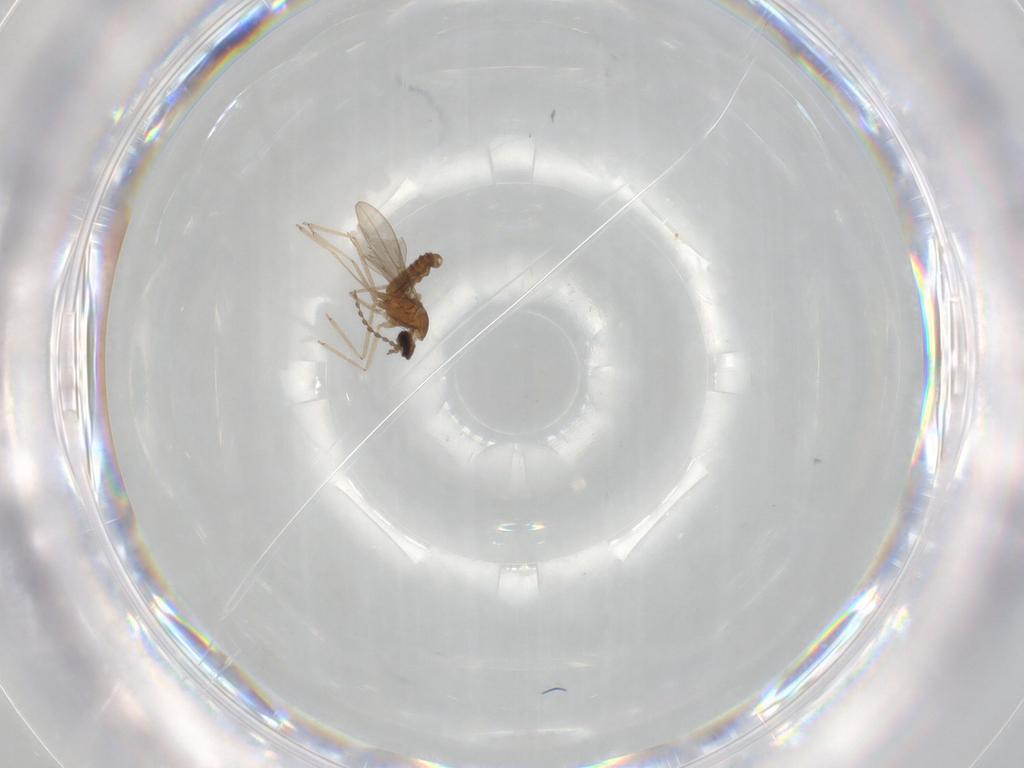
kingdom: Animalia
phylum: Arthropoda
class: Insecta
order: Diptera
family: Cecidomyiidae
